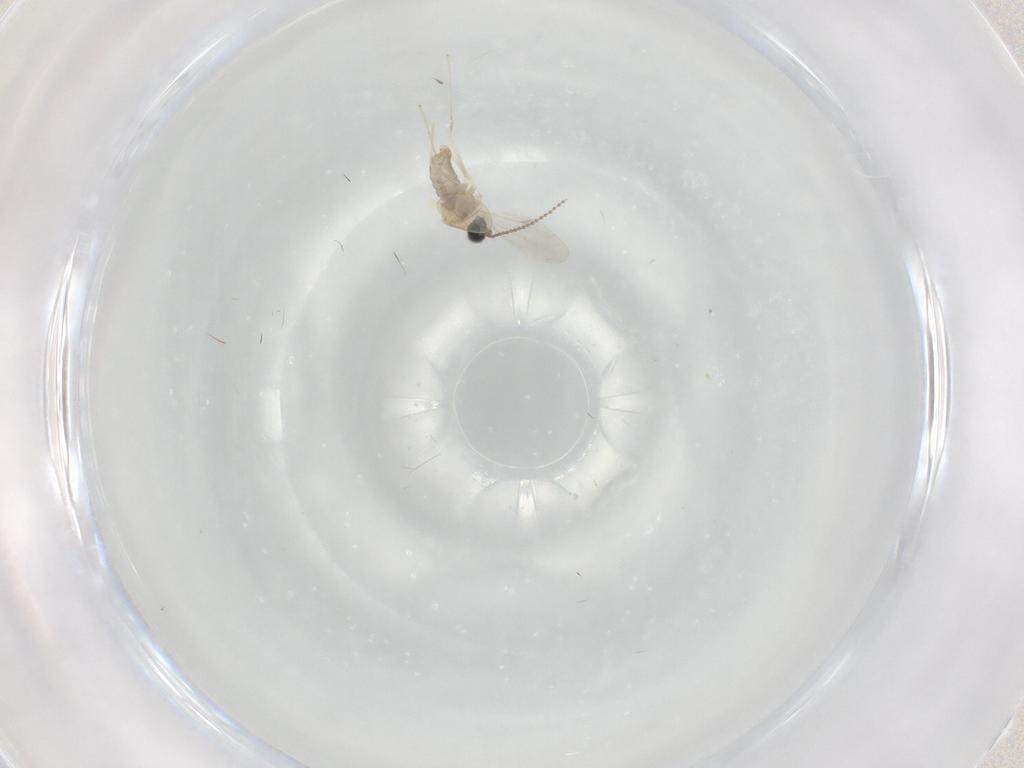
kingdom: Animalia
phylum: Arthropoda
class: Insecta
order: Diptera
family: Cecidomyiidae
